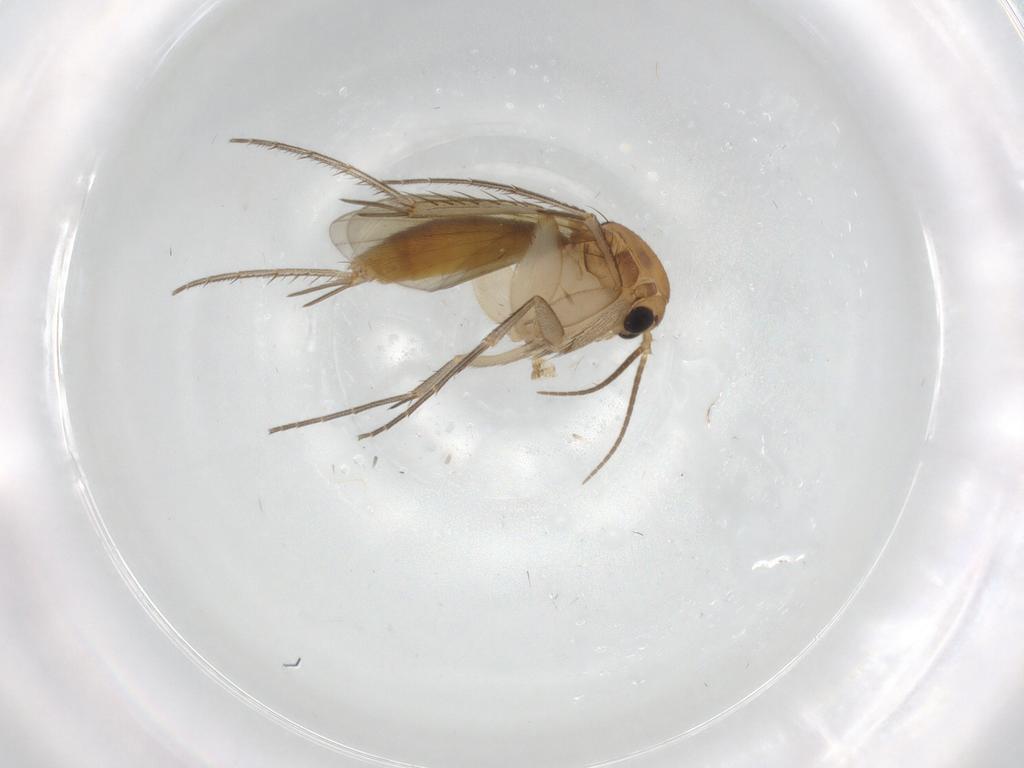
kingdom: Animalia
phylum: Arthropoda
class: Insecta
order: Diptera
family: Mycetophilidae
